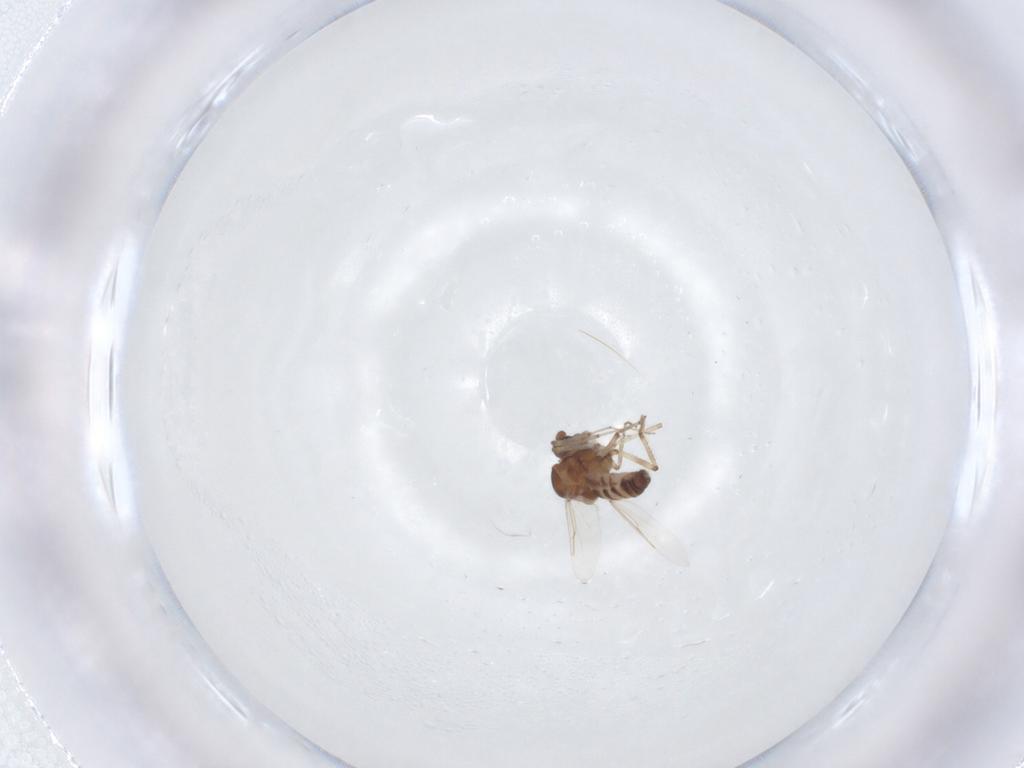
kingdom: Animalia
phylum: Arthropoda
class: Insecta
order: Diptera
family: Ceratopogonidae
